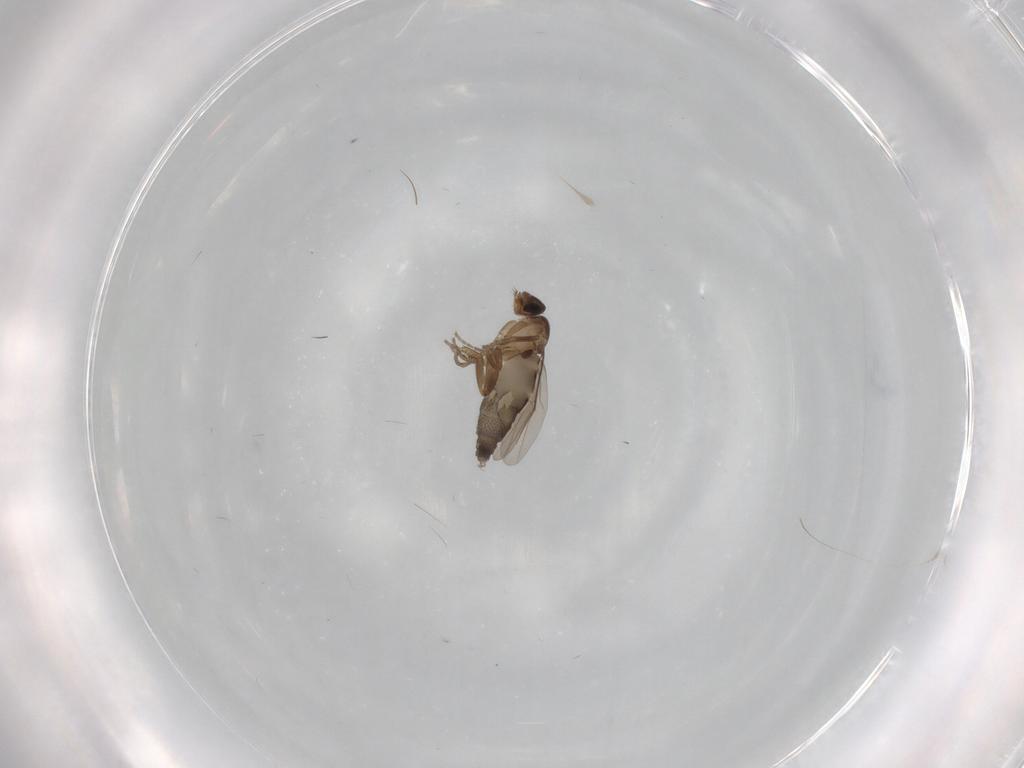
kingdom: Animalia
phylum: Arthropoda
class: Insecta
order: Diptera
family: Phoridae
